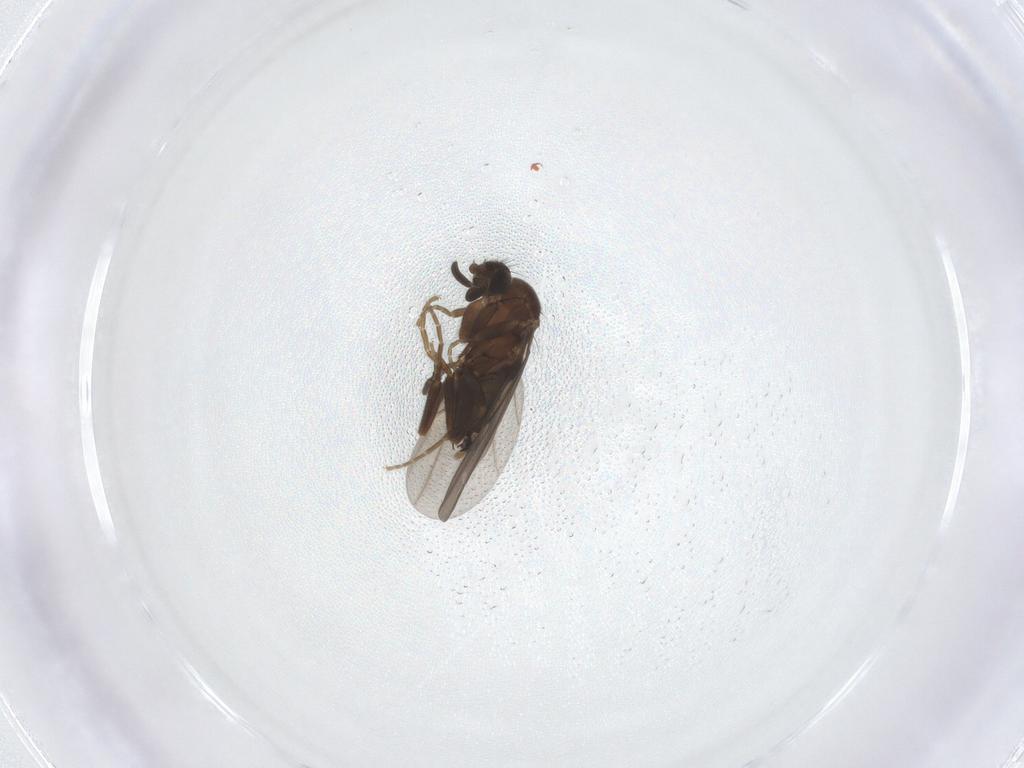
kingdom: Animalia
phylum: Arthropoda
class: Insecta
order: Diptera
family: Phoridae
